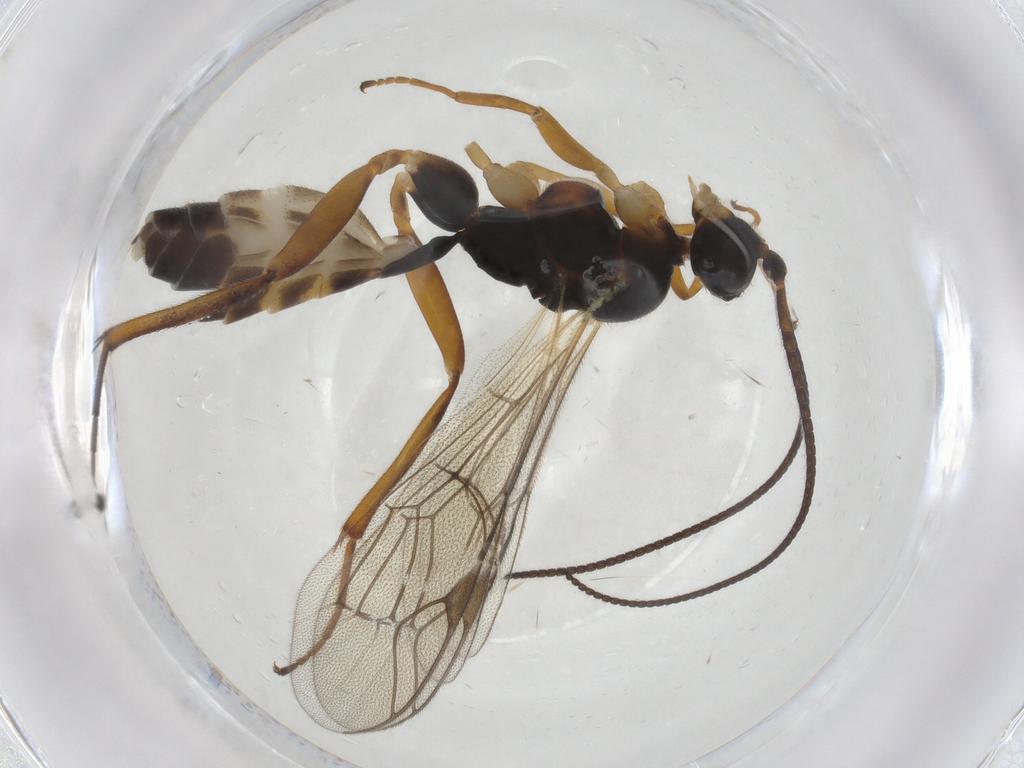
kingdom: Animalia
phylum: Arthropoda
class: Insecta
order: Hymenoptera
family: Ichneumonidae
